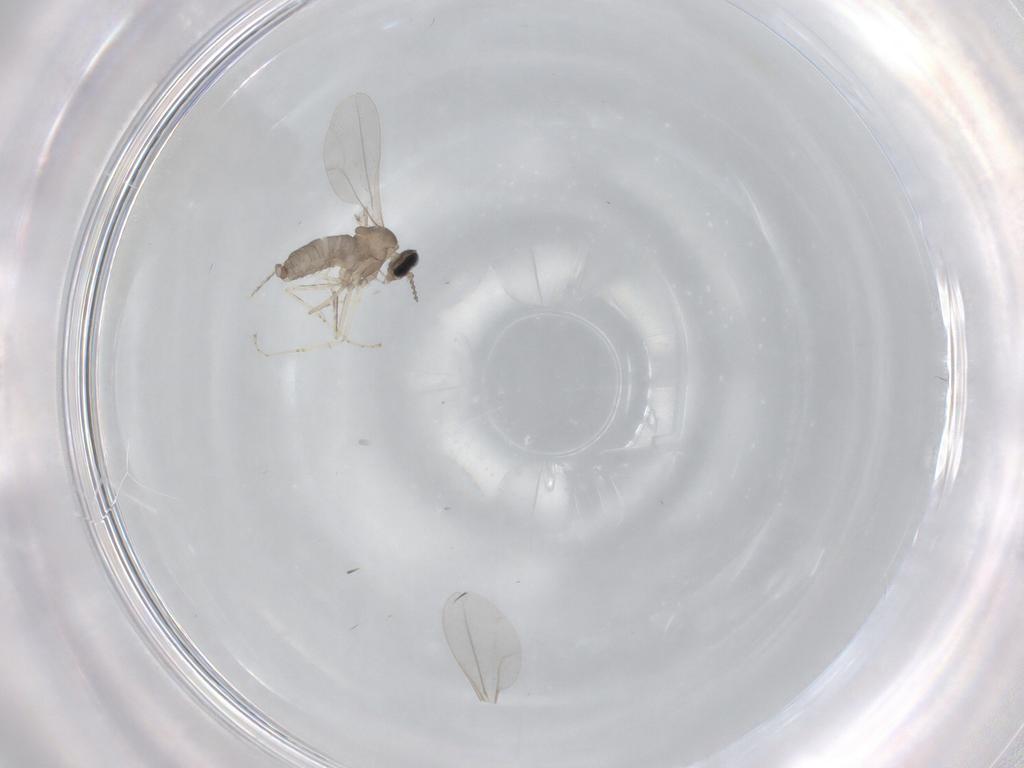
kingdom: Animalia
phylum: Arthropoda
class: Insecta
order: Diptera
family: Cecidomyiidae
